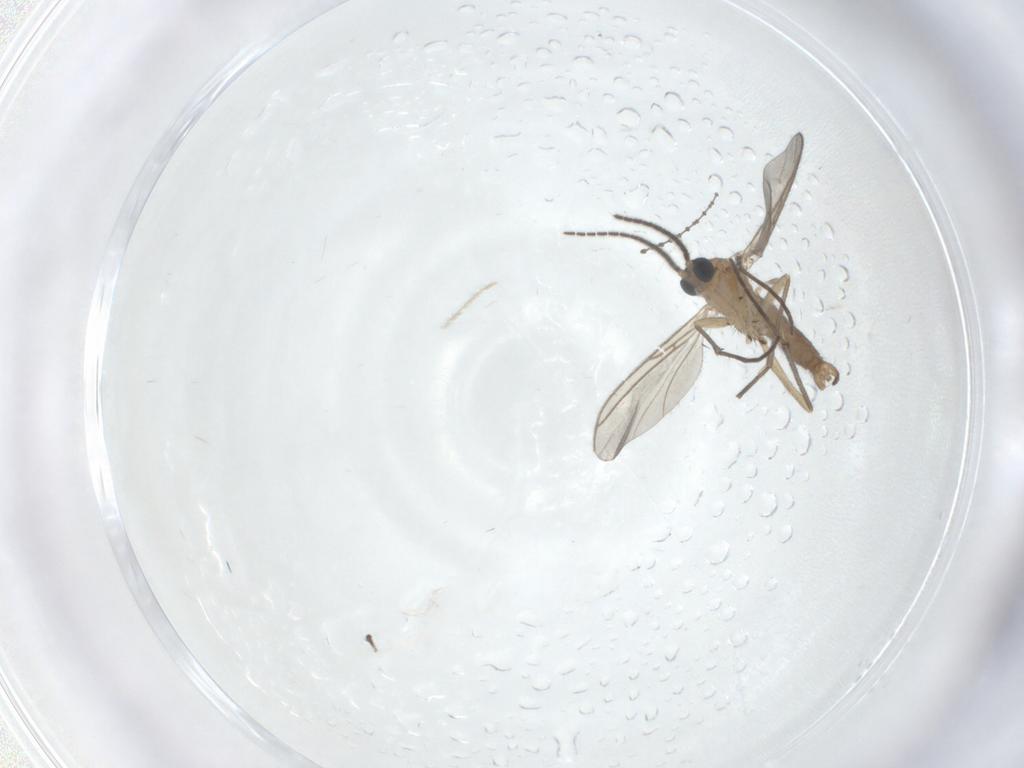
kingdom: Animalia
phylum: Arthropoda
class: Insecta
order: Diptera
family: Sciaridae
